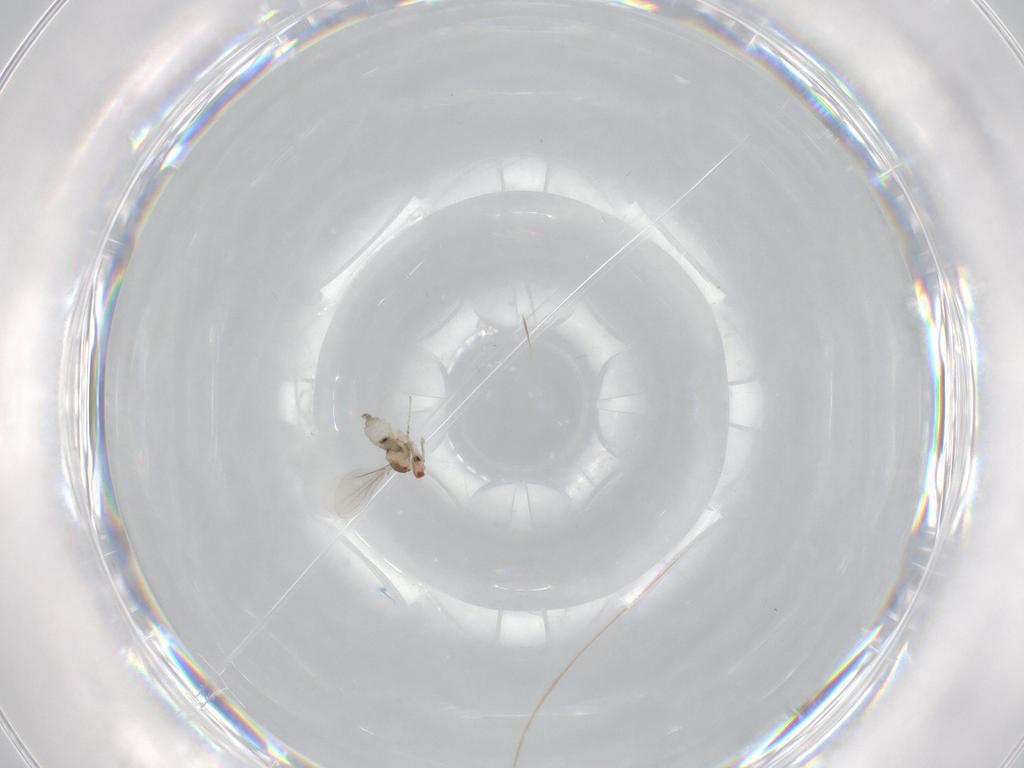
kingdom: Animalia
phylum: Arthropoda
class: Insecta
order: Diptera
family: Cecidomyiidae
